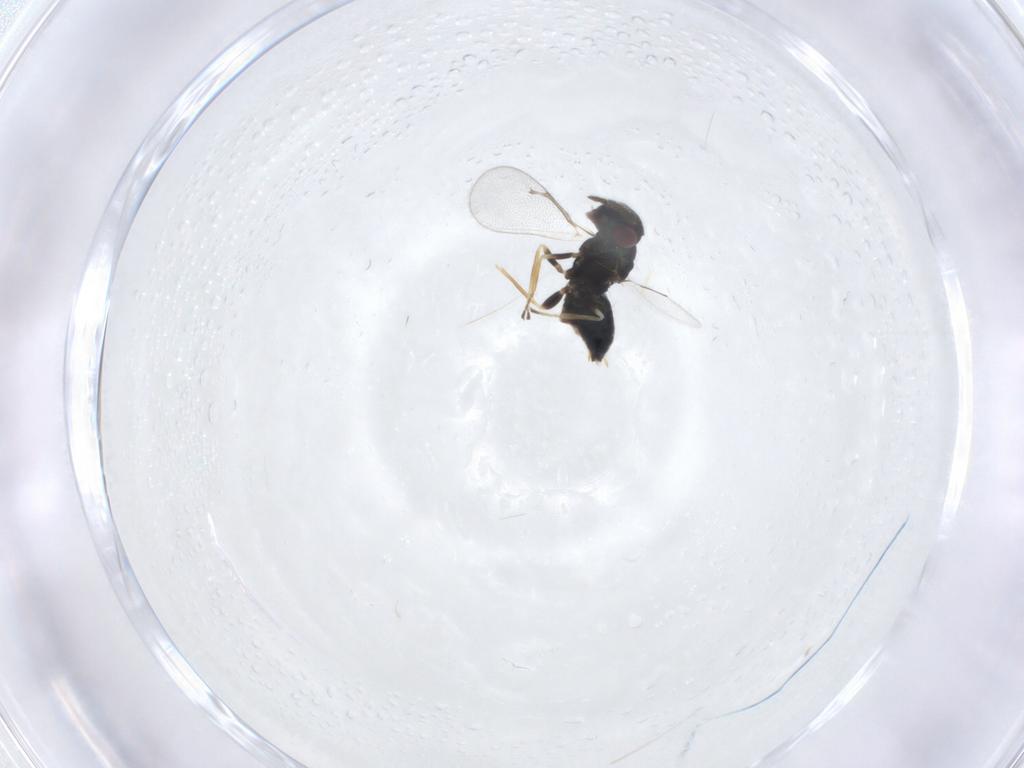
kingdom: Animalia
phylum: Arthropoda
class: Insecta
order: Hymenoptera
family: Eulophidae
